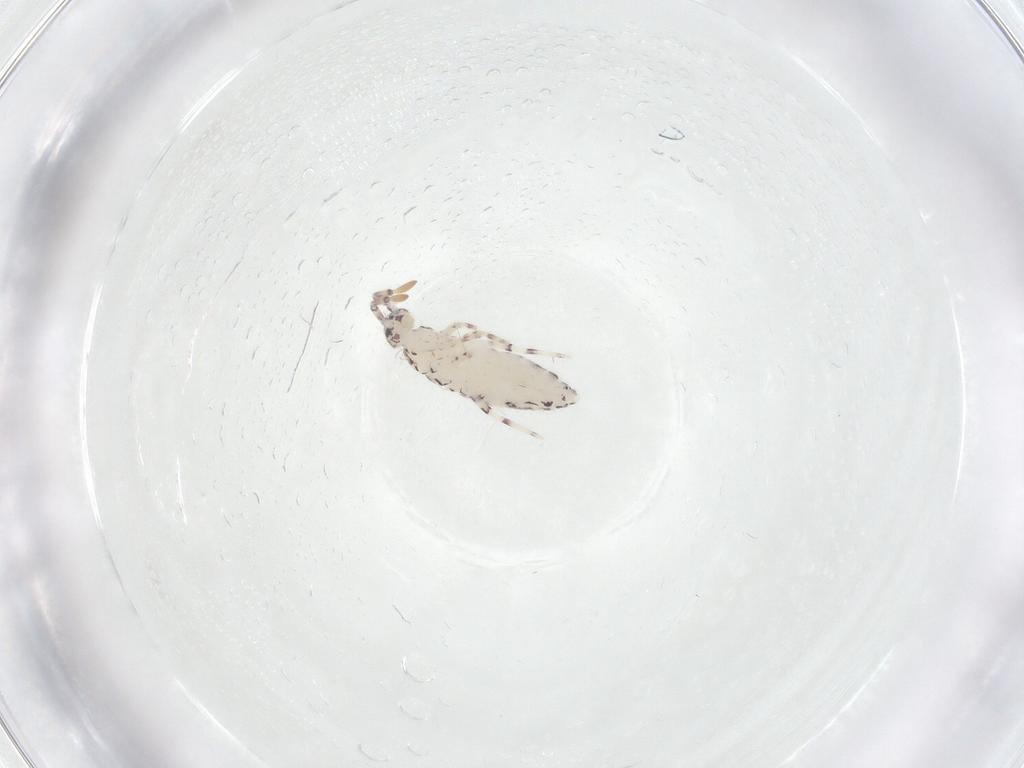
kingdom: Animalia
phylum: Arthropoda
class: Collembola
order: Entomobryomorpha
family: Entomobryidae
